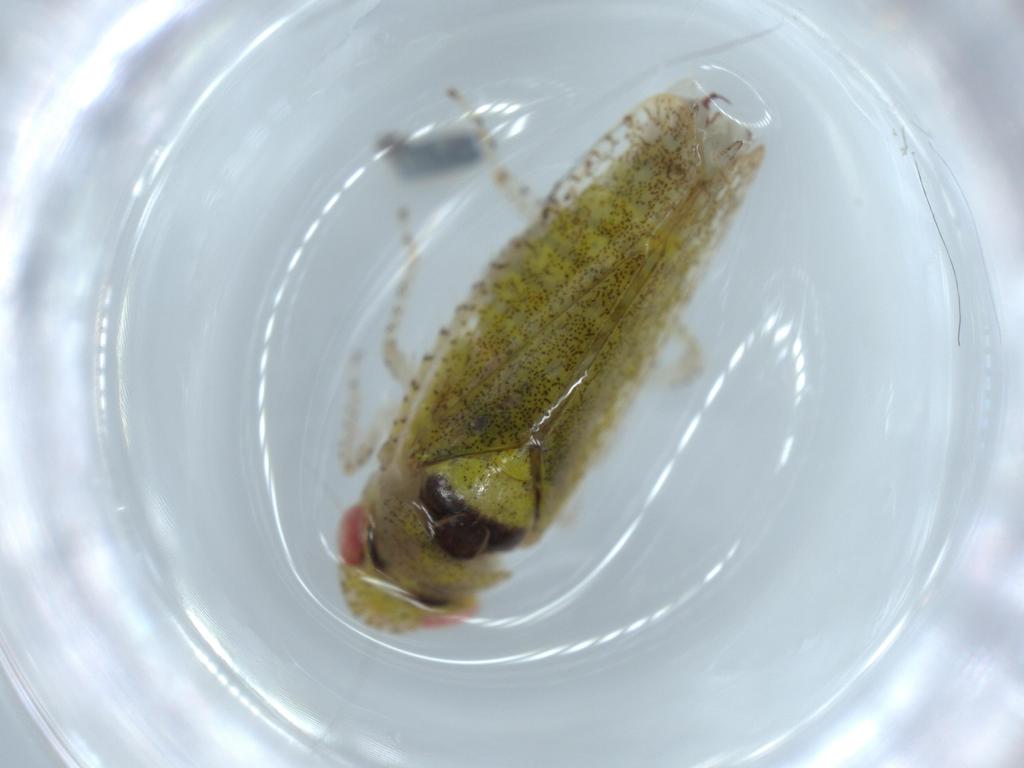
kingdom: Animalia
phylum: Arthropoda
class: Insecta
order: Hemiptera
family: Cicadellidae
